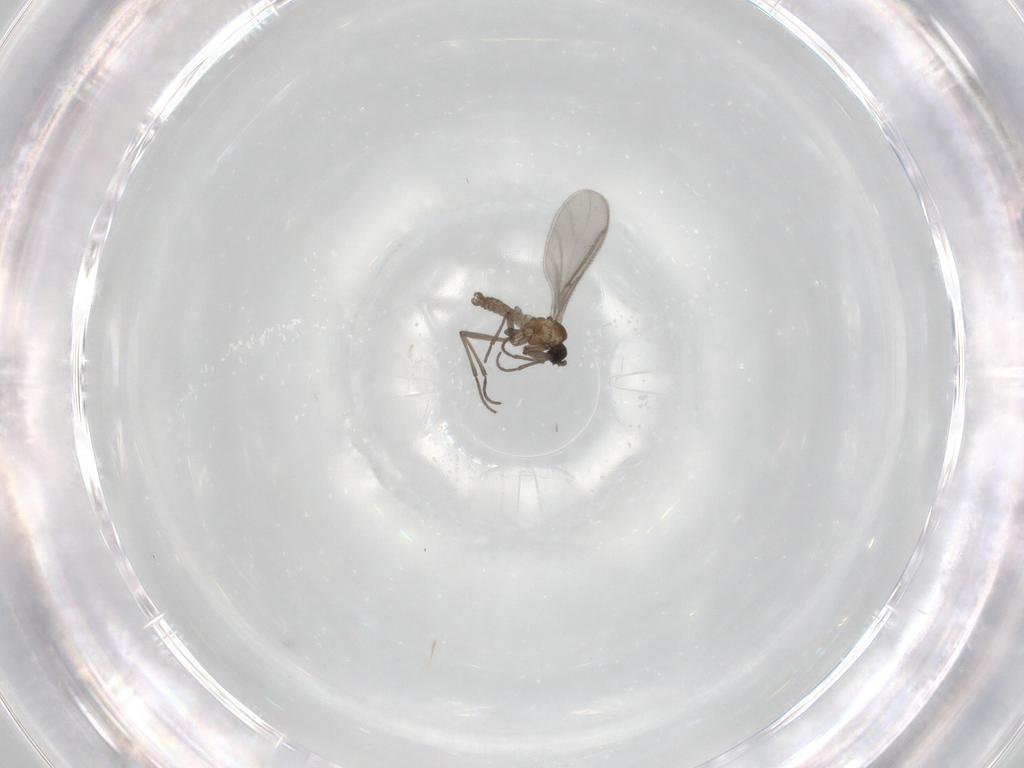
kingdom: Animalia
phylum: Arthropoda
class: Insecta
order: Diptera
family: Sciaridae
